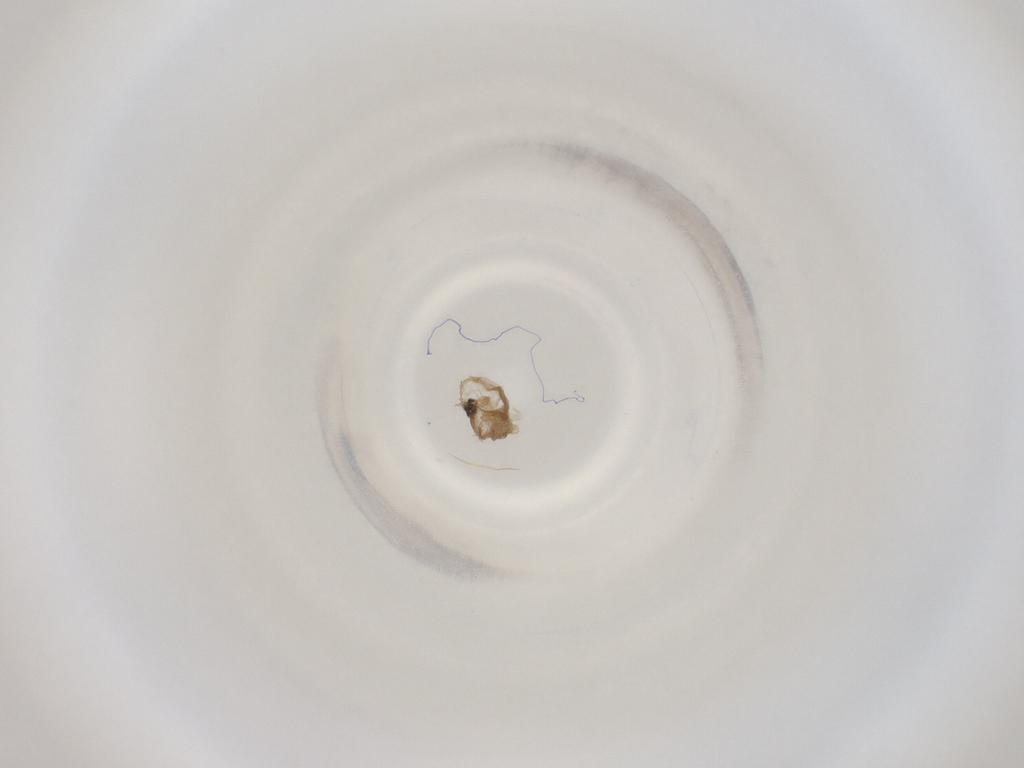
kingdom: Animalia
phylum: Arthropoda
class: Insecta
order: Diptera
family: Cecidomyiidae
